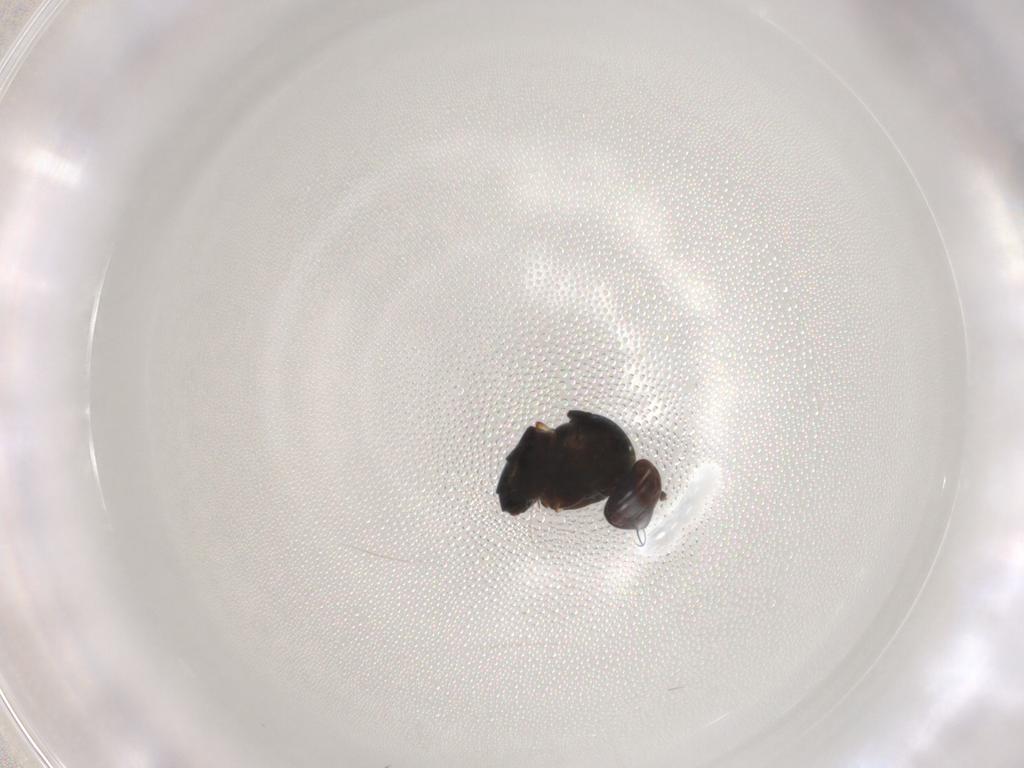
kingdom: Animalia
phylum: Arthropoda
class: Insecta
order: Diptera
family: Ephydridae
